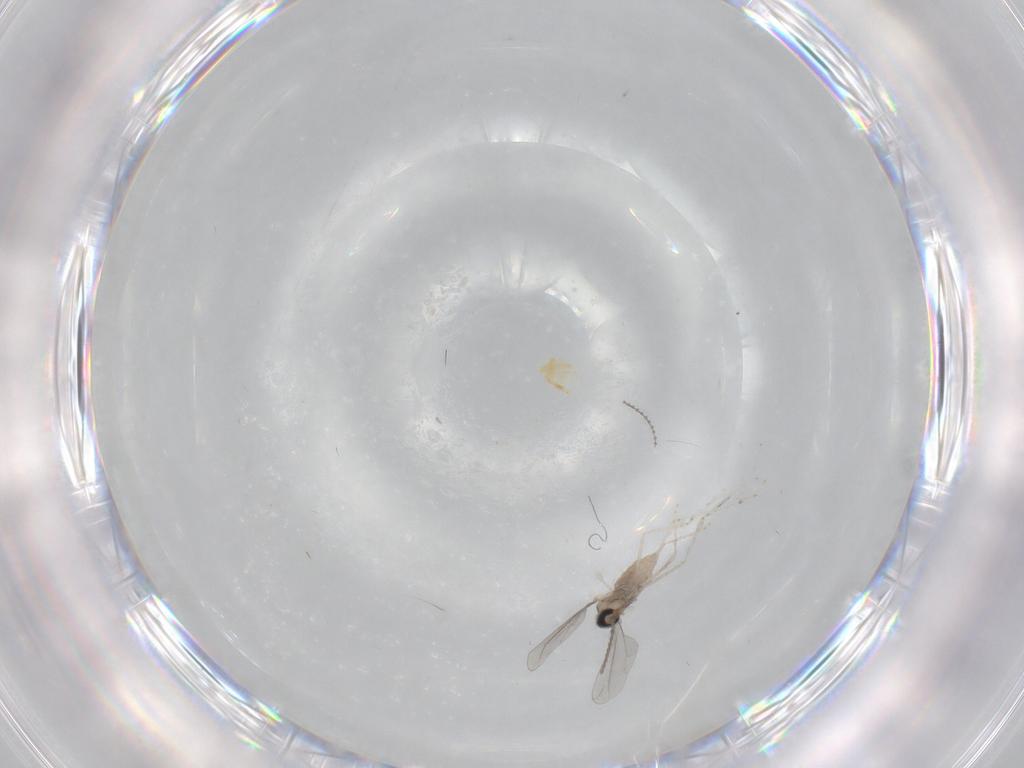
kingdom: Animalia
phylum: Arthropoda
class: Insecta
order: Diptera
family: Cecidomyiidae
